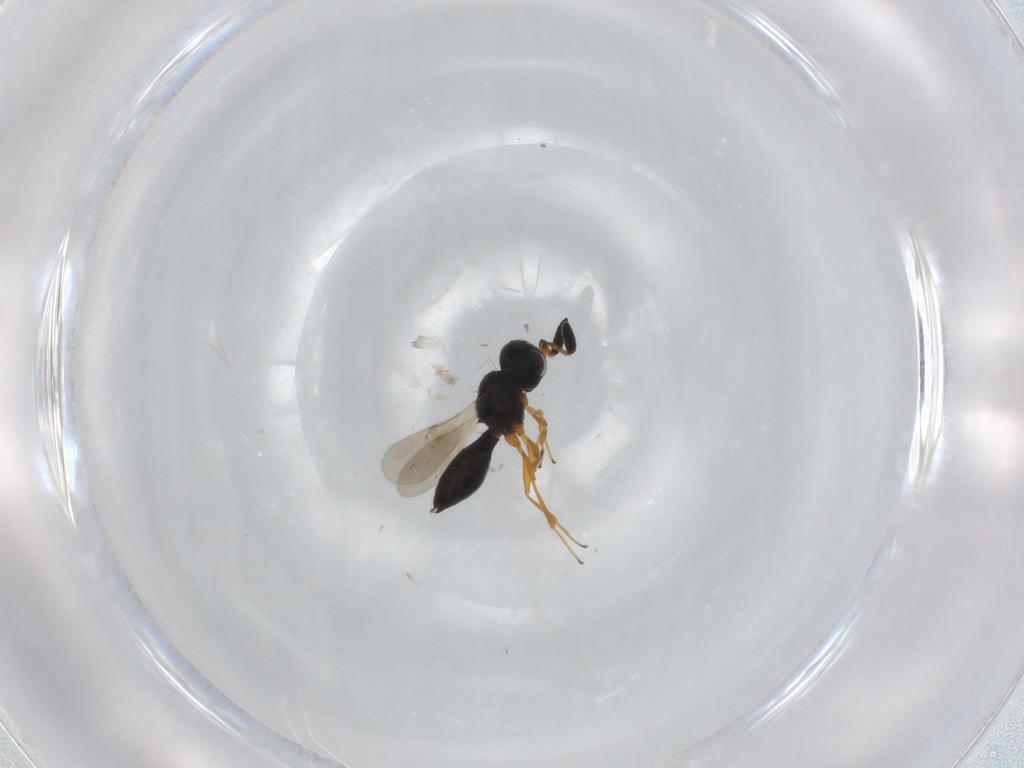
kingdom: Animalia
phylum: Arthropoda
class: Insecta
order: Hymenoptera
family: Scelionidae
